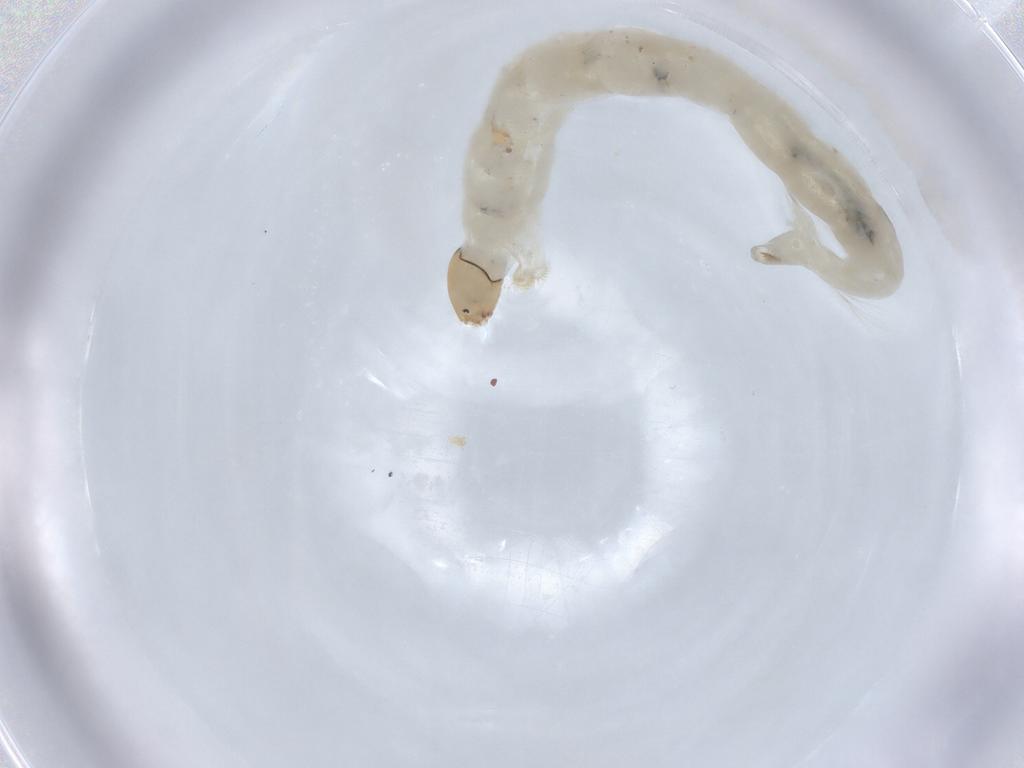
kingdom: Animalia
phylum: Arthropoda
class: Insecta
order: Diptera
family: Chironomidae
